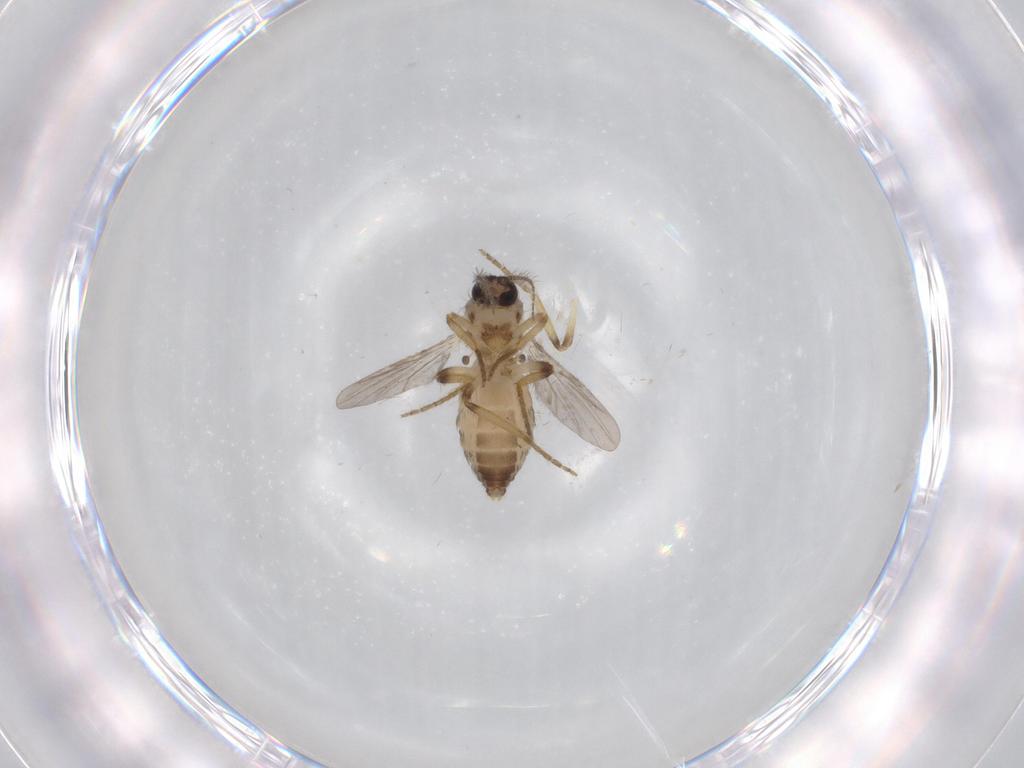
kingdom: Animalia
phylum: Arthropoda
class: Insecta
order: Diptera
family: Ceratopogonidae
